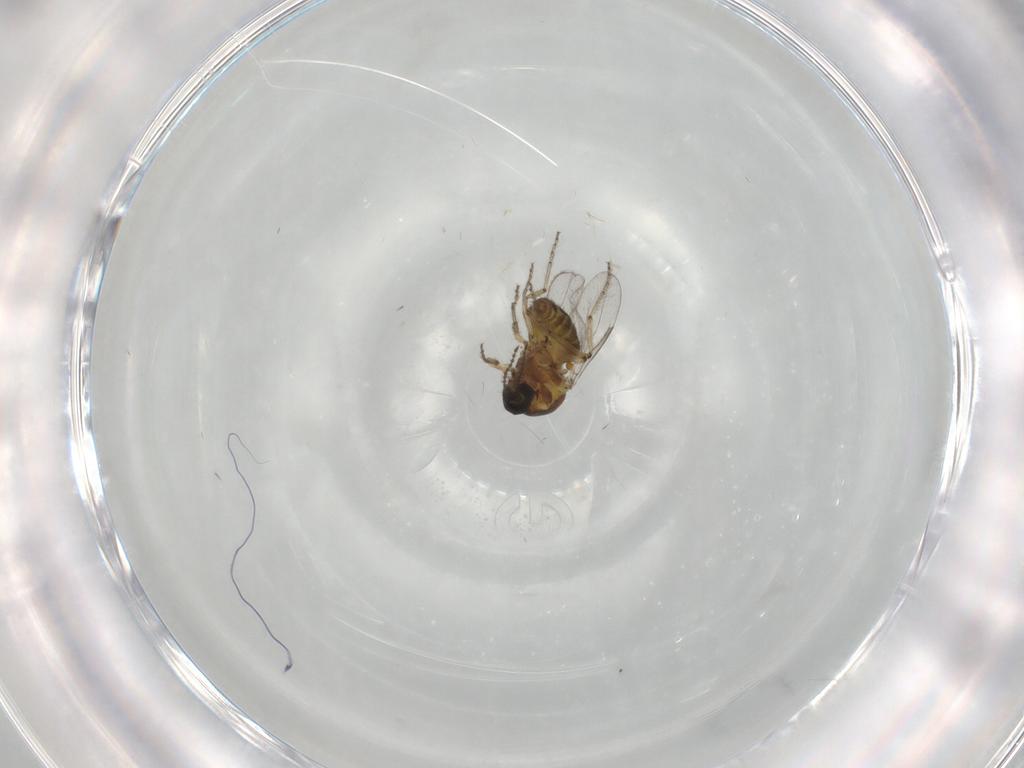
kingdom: Animalia
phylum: Arthropoda
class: Insecta
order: Diptera
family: Ceratopogonidae
